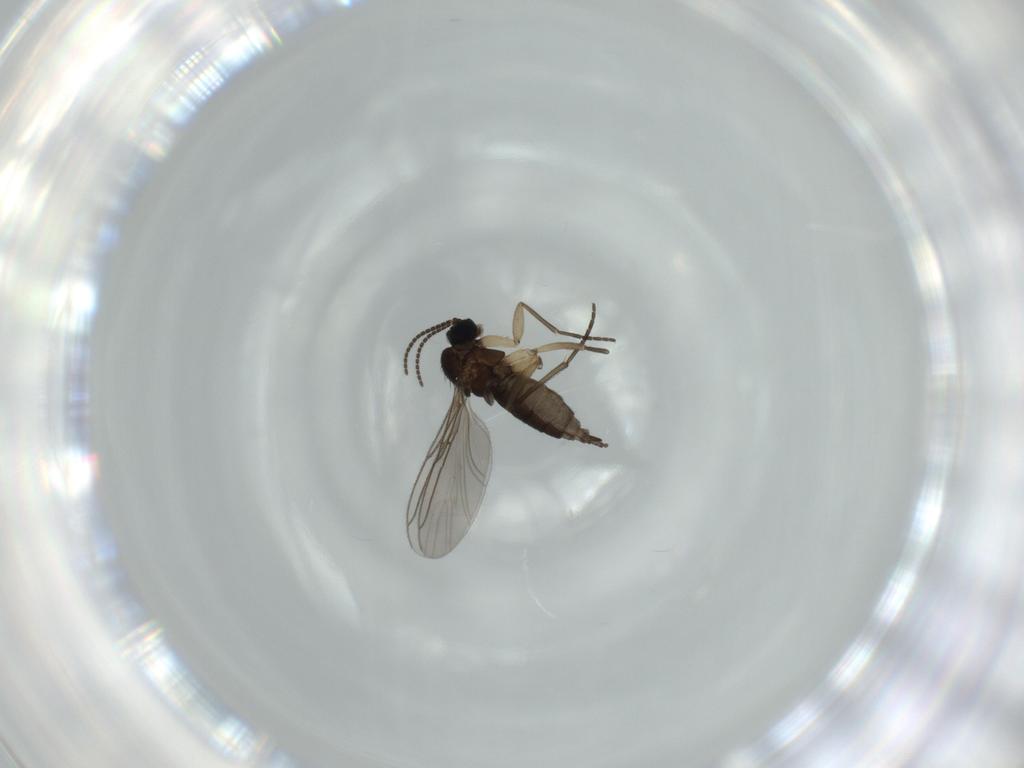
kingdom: Animalia
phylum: Arthropoda
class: Insecta
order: Diptera
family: Sciaridae
